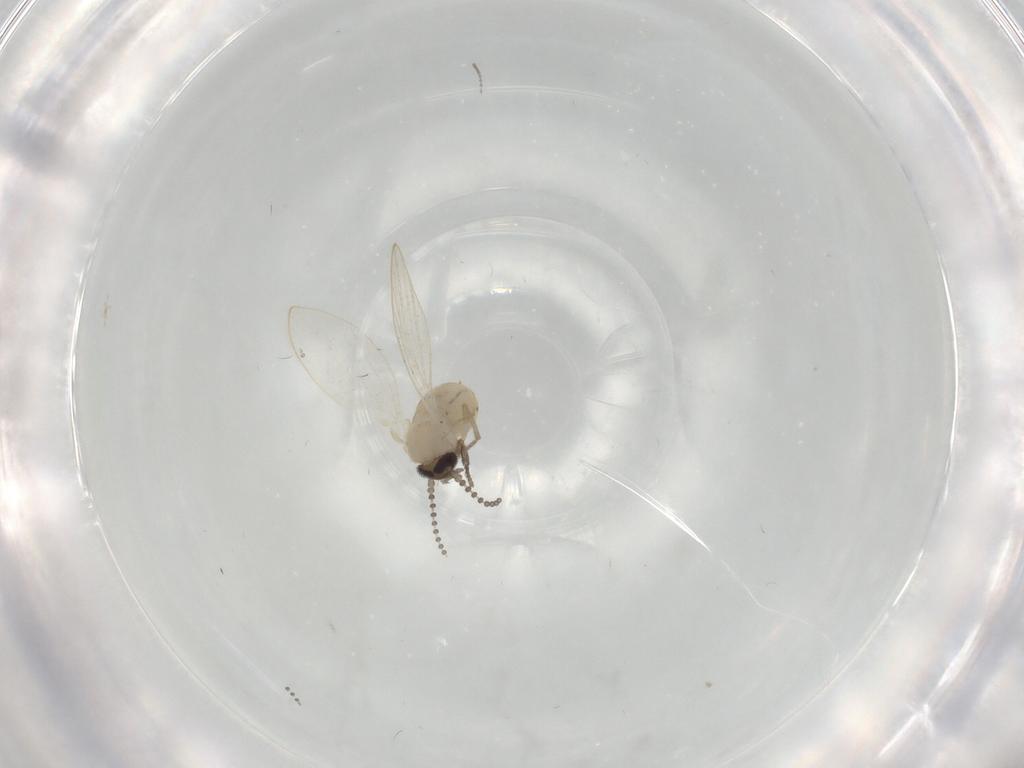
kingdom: Animalia
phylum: Arthropoda
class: Insecta
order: Diptera
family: Psychodidae
